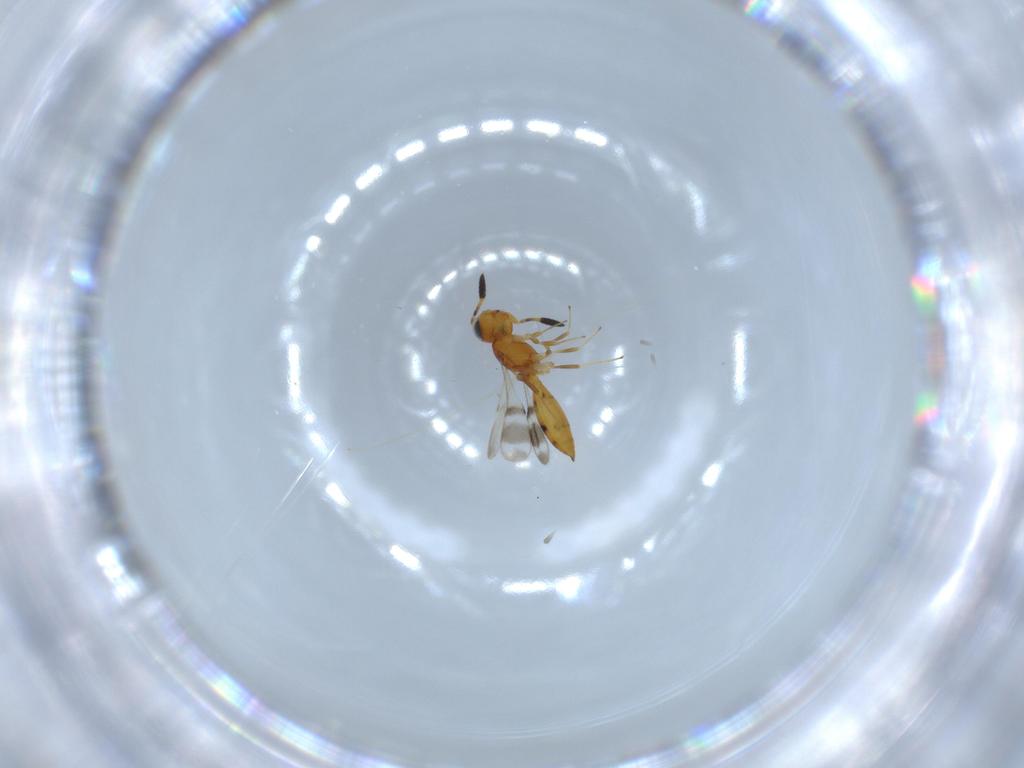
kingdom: Animalia
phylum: Arthropoda
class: Insecta
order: Hymenoptera
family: Scelionidae
